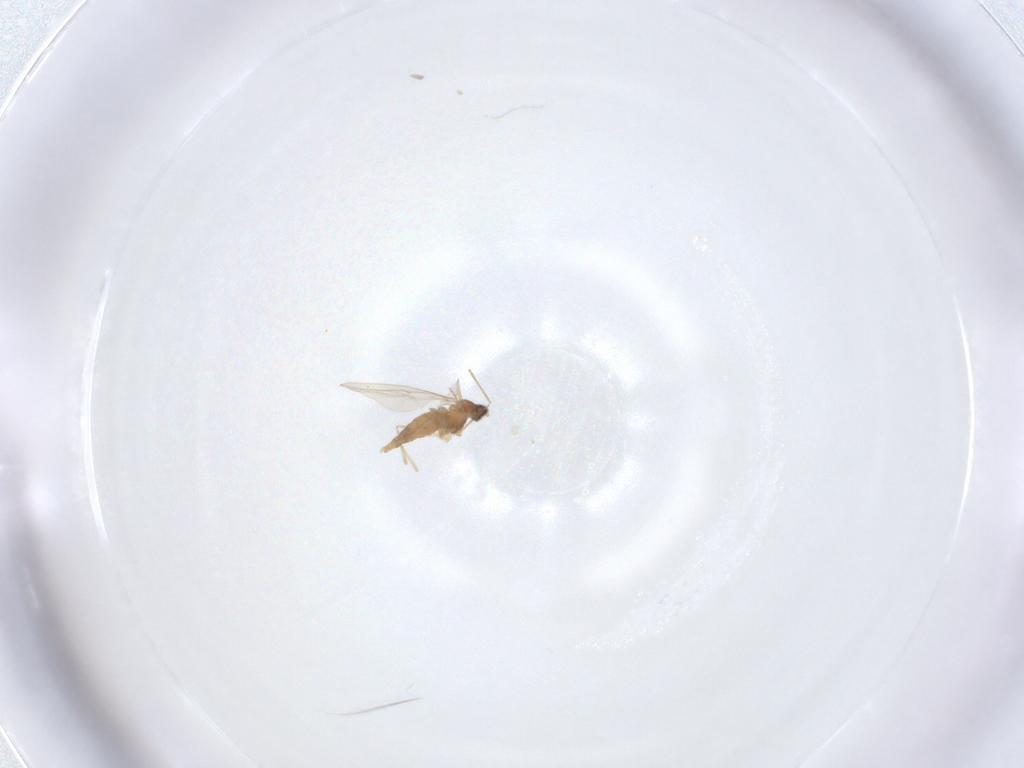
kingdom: Animalia
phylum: Arthropoda
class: Insecta
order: Diptera
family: Cecidomyiidae
